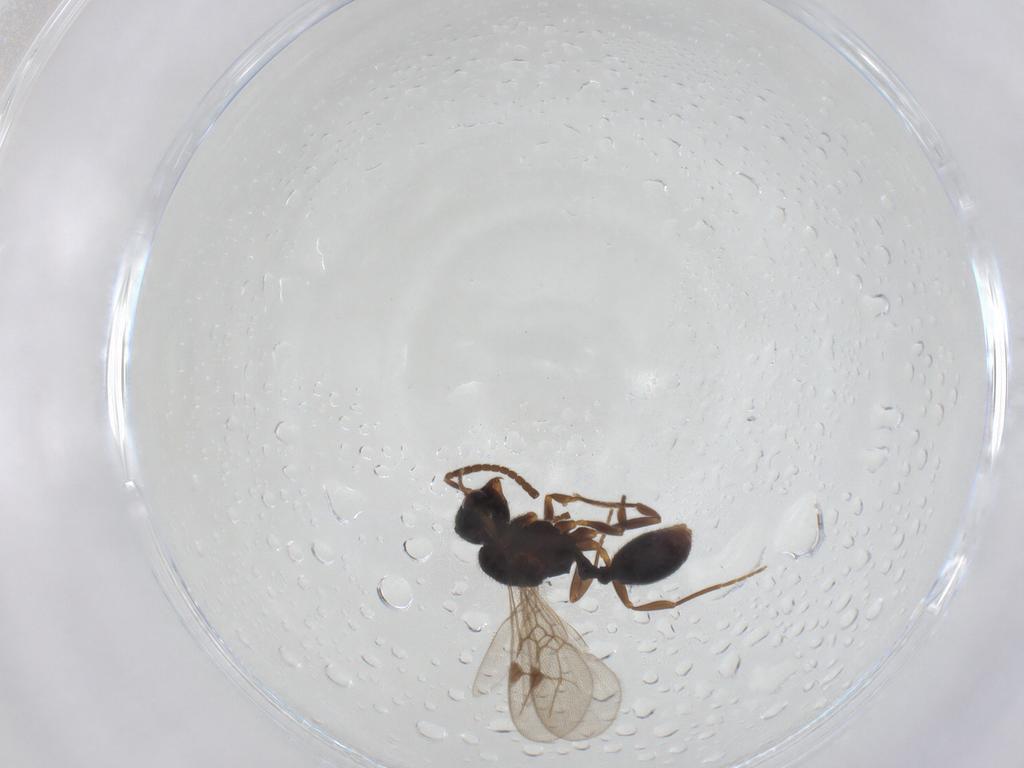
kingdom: Animalia
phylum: Arthropoda
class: Insecta
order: Hymenoptera
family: Formicidae
